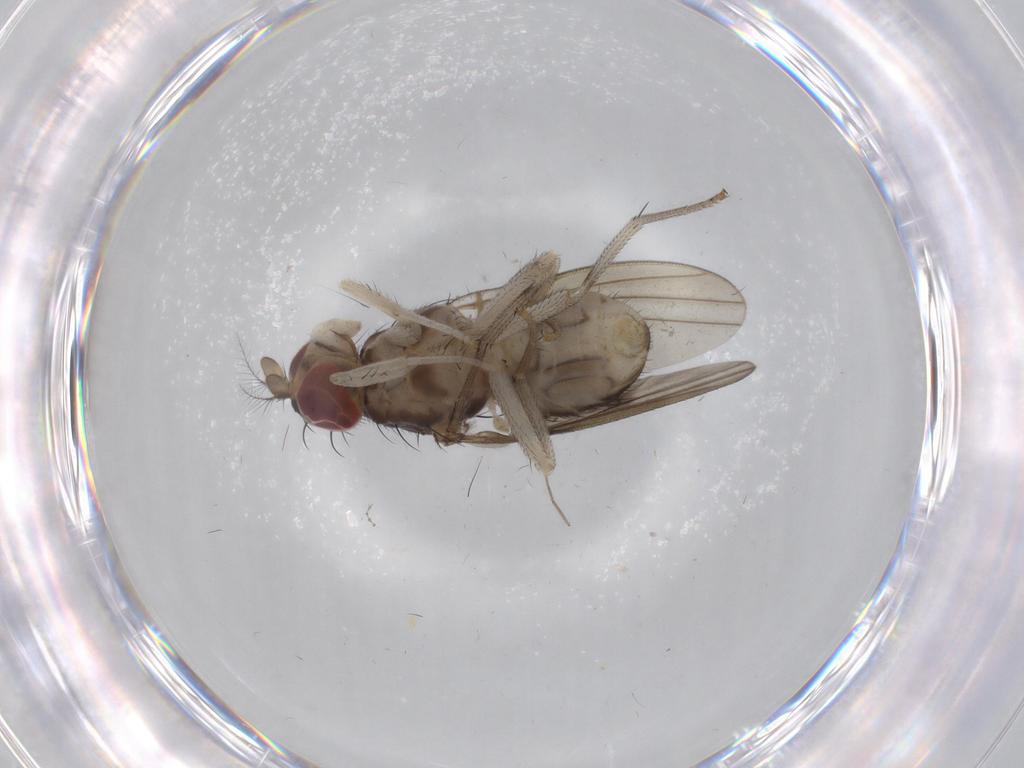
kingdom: Animalia
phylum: Arthropoda
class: Insecta
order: Diptera
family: Lauxaniidae
